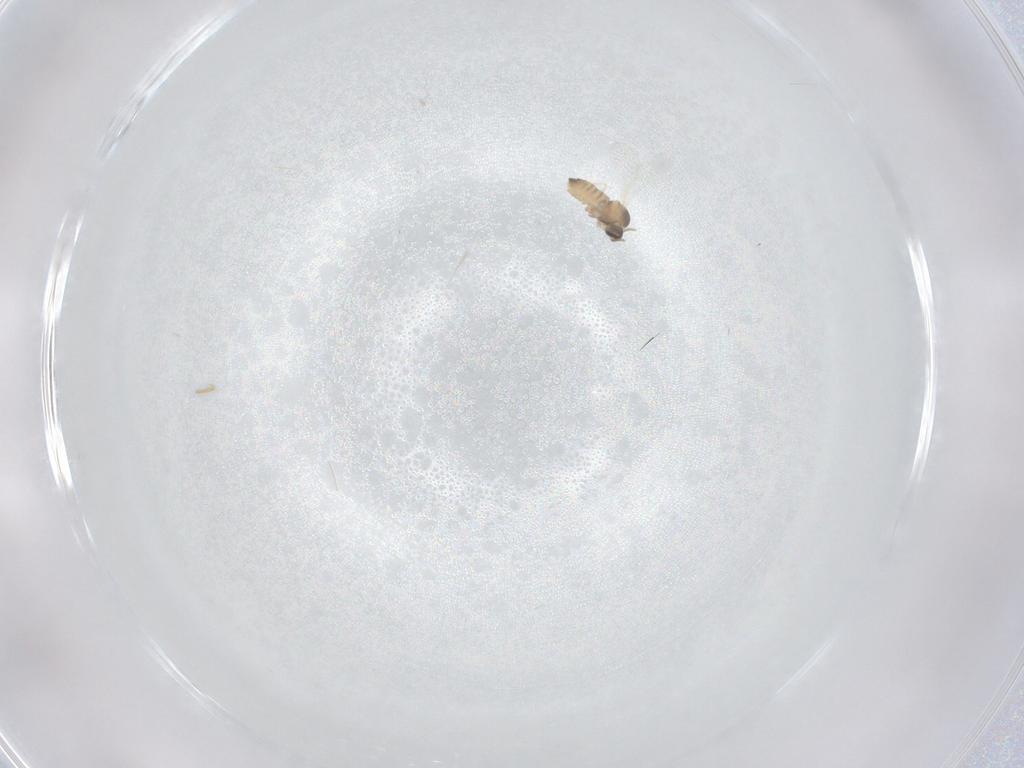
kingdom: Animalia
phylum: Arthropoda
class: Insecta
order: Diptera
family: Cecidomyiidae
